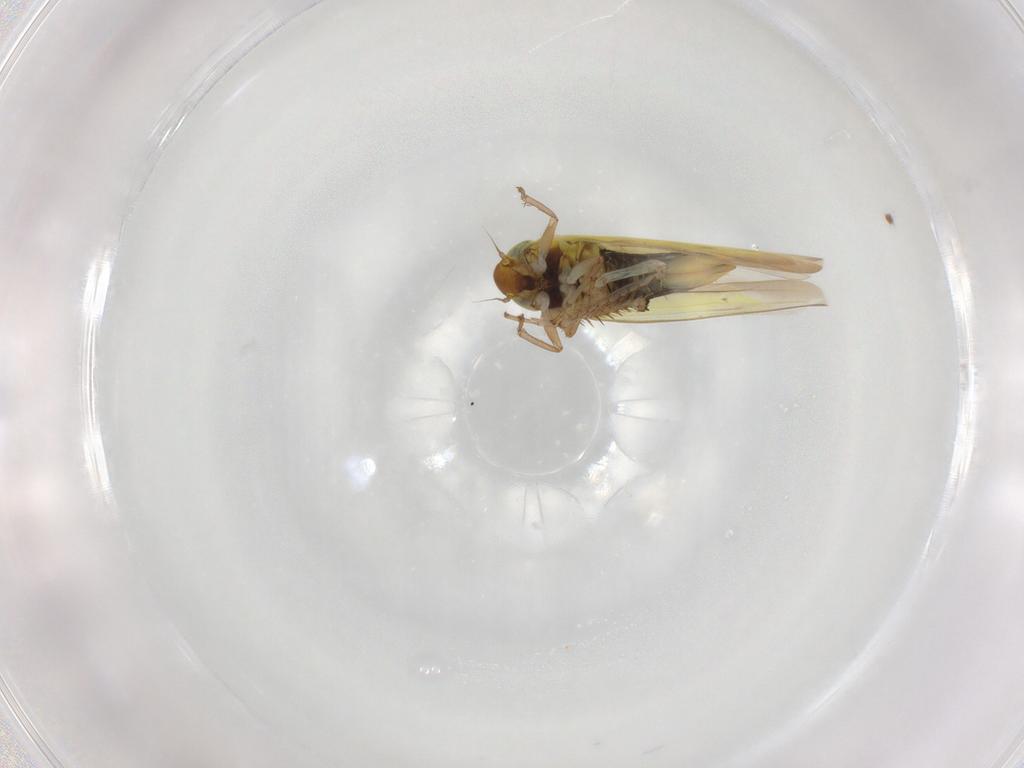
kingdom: Animalia
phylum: Arthropoda
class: Insecta
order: Hemiptera
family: Cicadellidae
